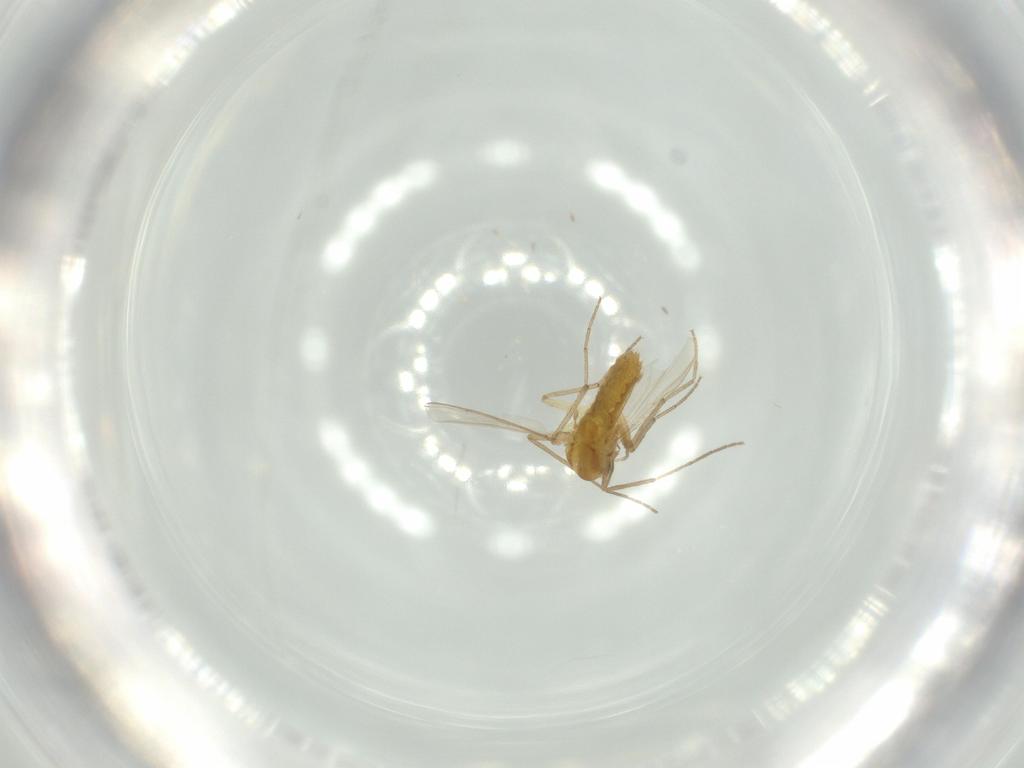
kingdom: Animalia
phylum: Arthropoda
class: Insecta
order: Diptera
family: Chironomidae
